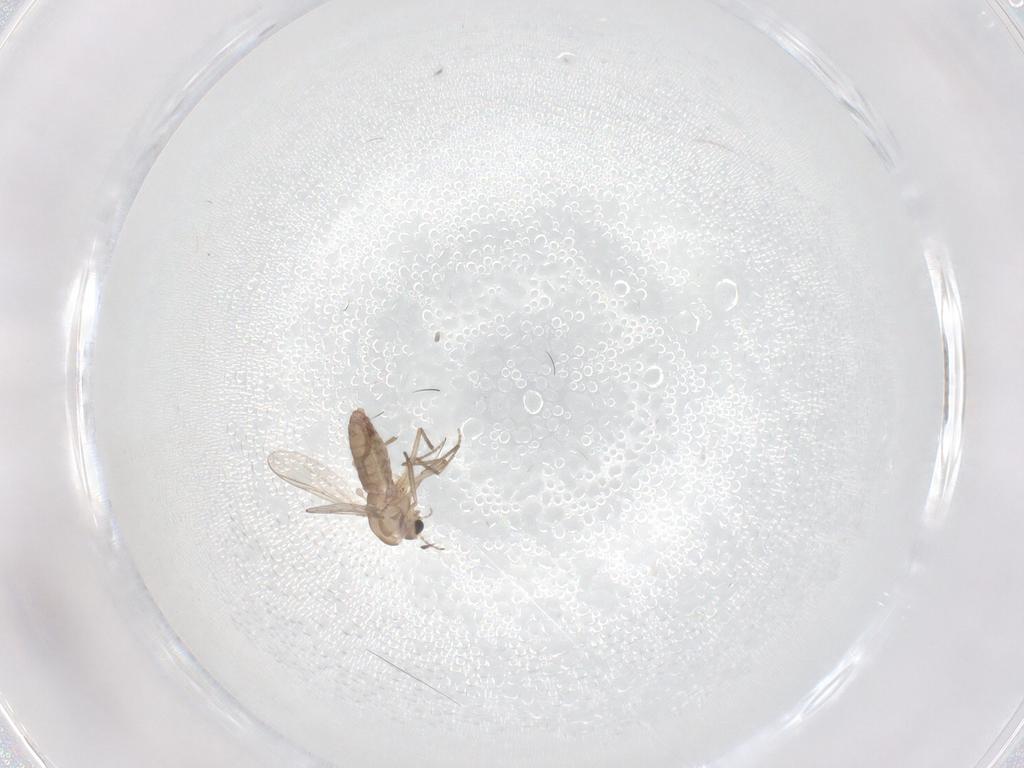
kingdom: Animalia
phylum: Arthropoda
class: Insecta
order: Diptera
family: Chironomidae
